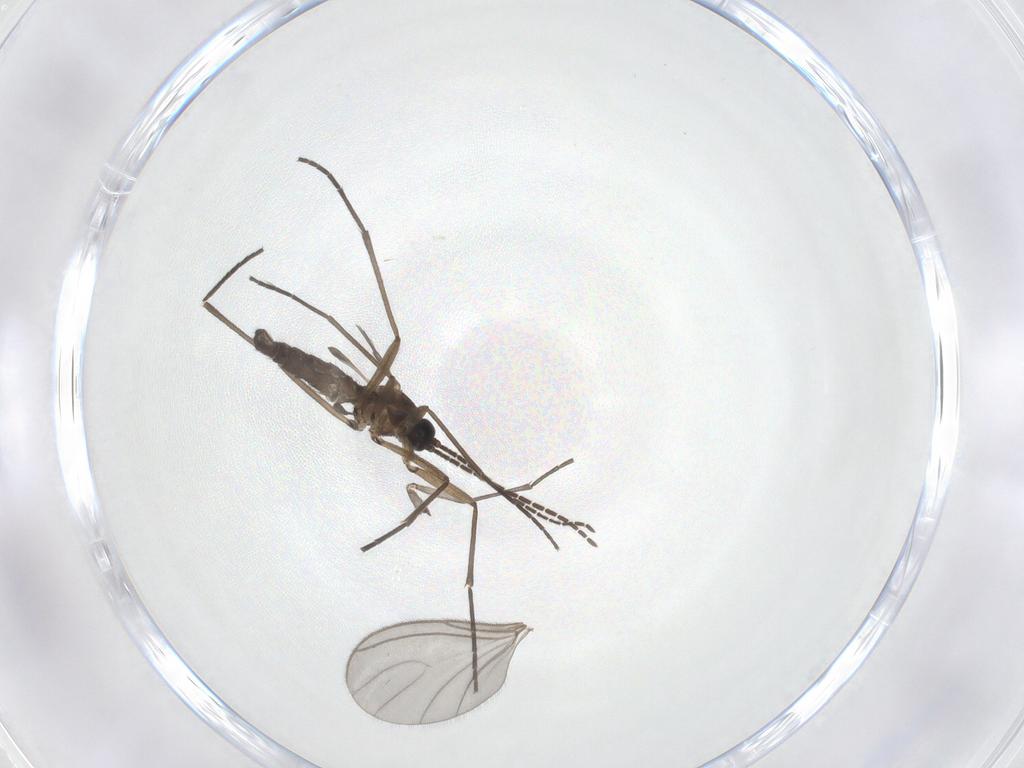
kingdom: Animalia
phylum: Arthropoda
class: Insecta
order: Diptera
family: Sciaridae
